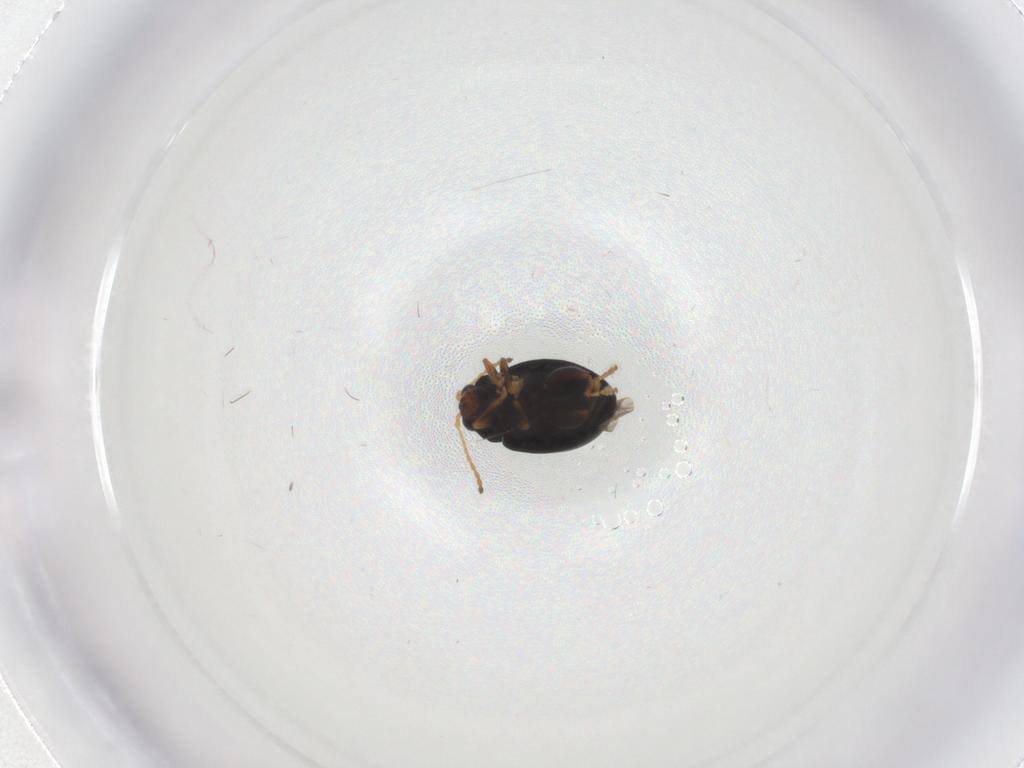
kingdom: Animalia
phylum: Arthropoda
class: Insecta
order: Coleoptera
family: Chrysomelidae
